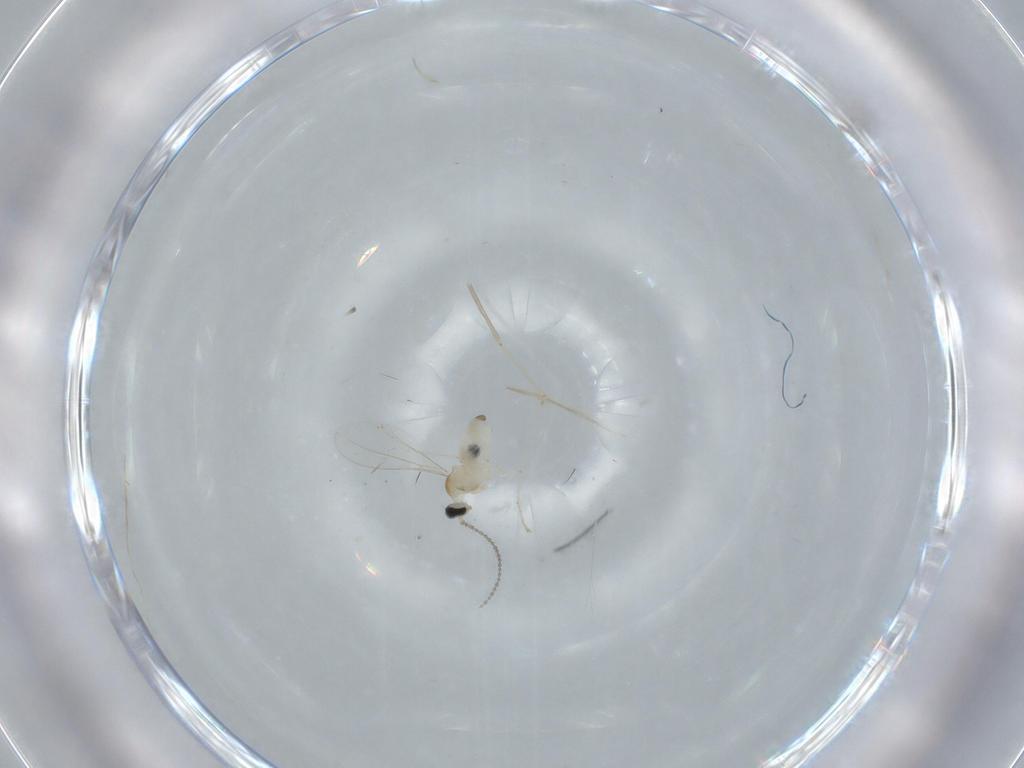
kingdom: Animalia
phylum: Arthropoda
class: Insecta
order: Diptera
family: Cecidomyiidae
